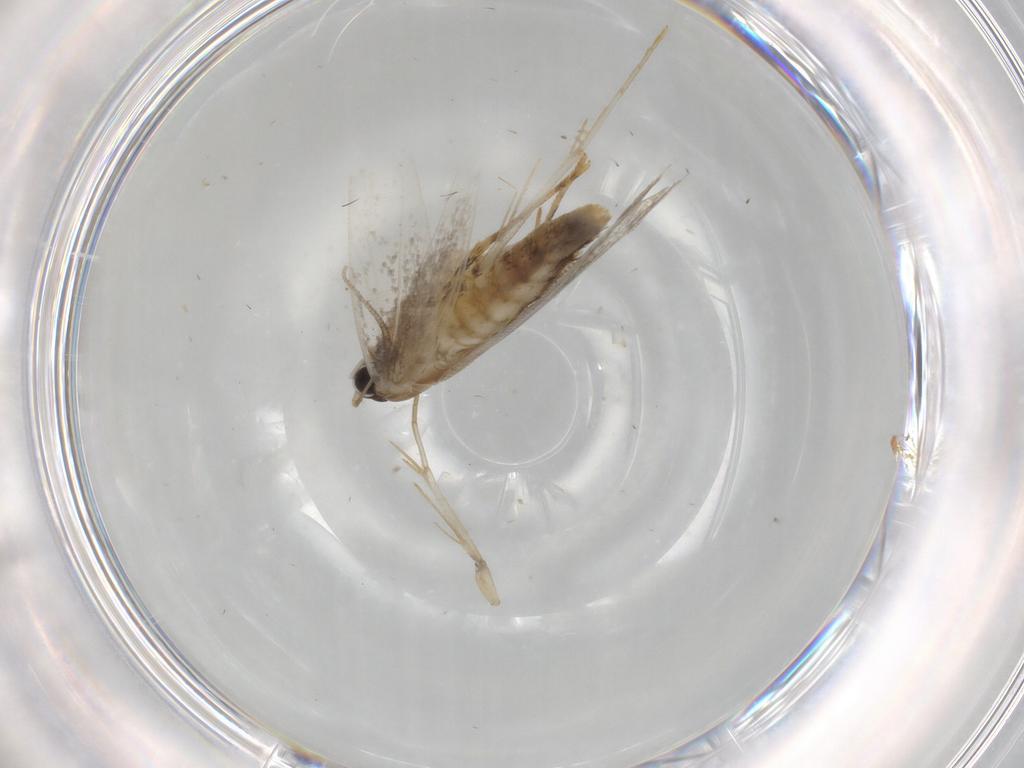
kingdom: Animalia
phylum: Arthropoda
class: Insecta
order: Lepidoptera
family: Tineidae
